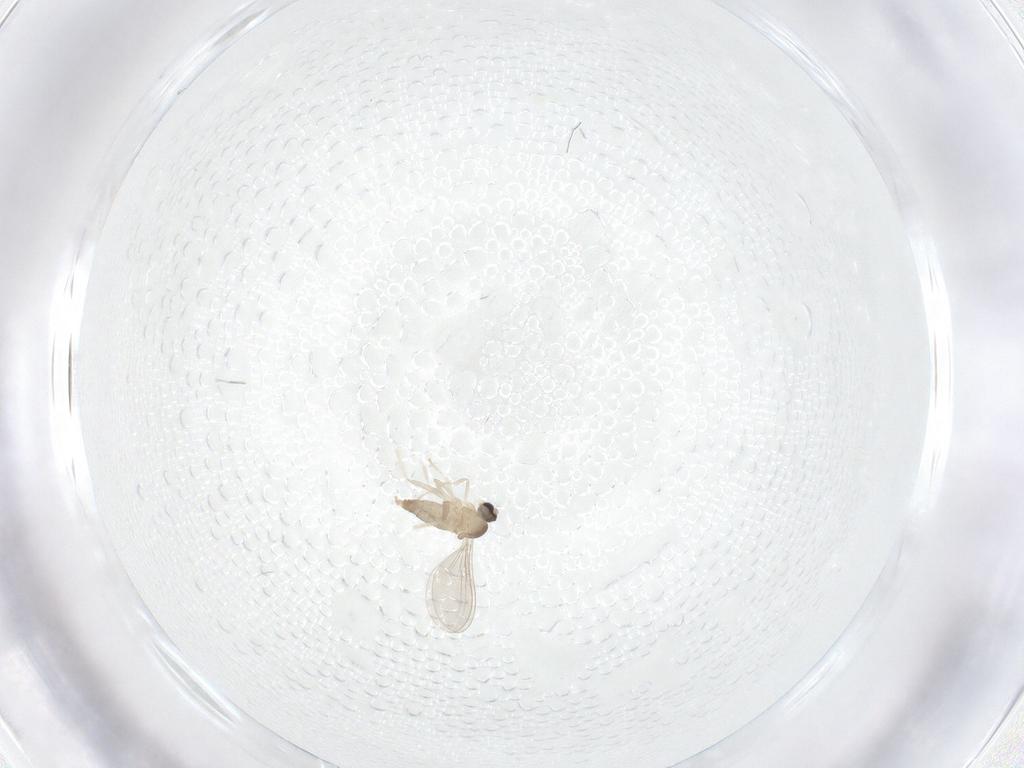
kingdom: Animalia
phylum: Arthropoda
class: Insecta
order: Diptera
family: Cecidomyiidae
